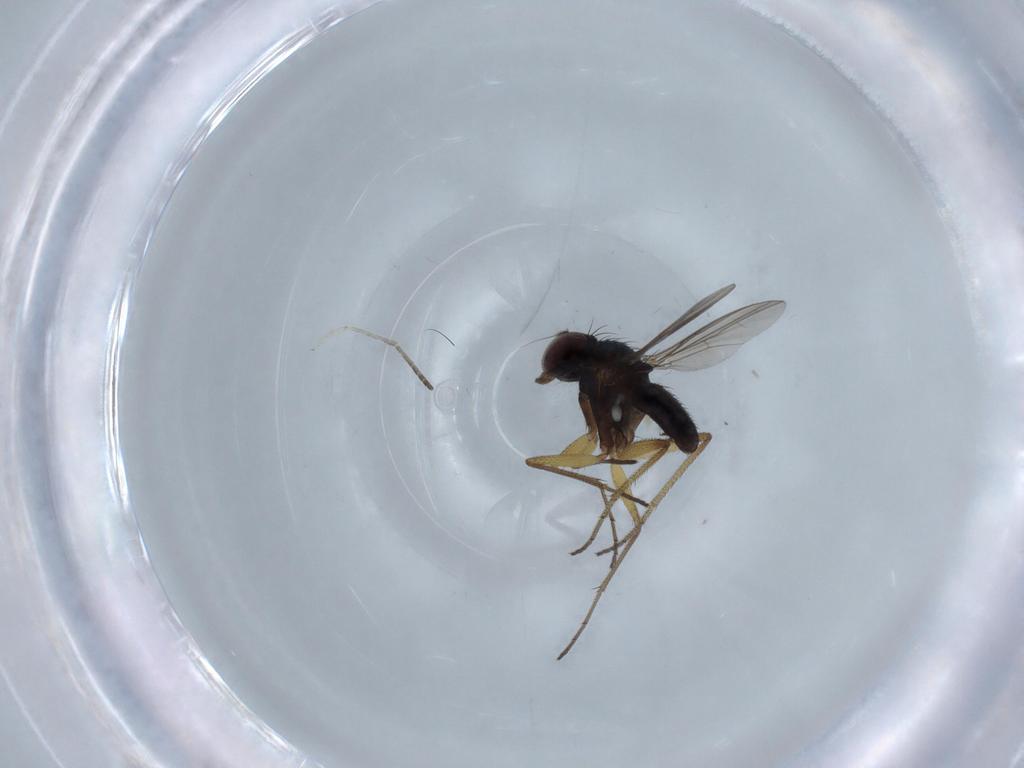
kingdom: Animalia
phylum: Arthropoda
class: Insecta
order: Diptera
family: Dolichopodidae
